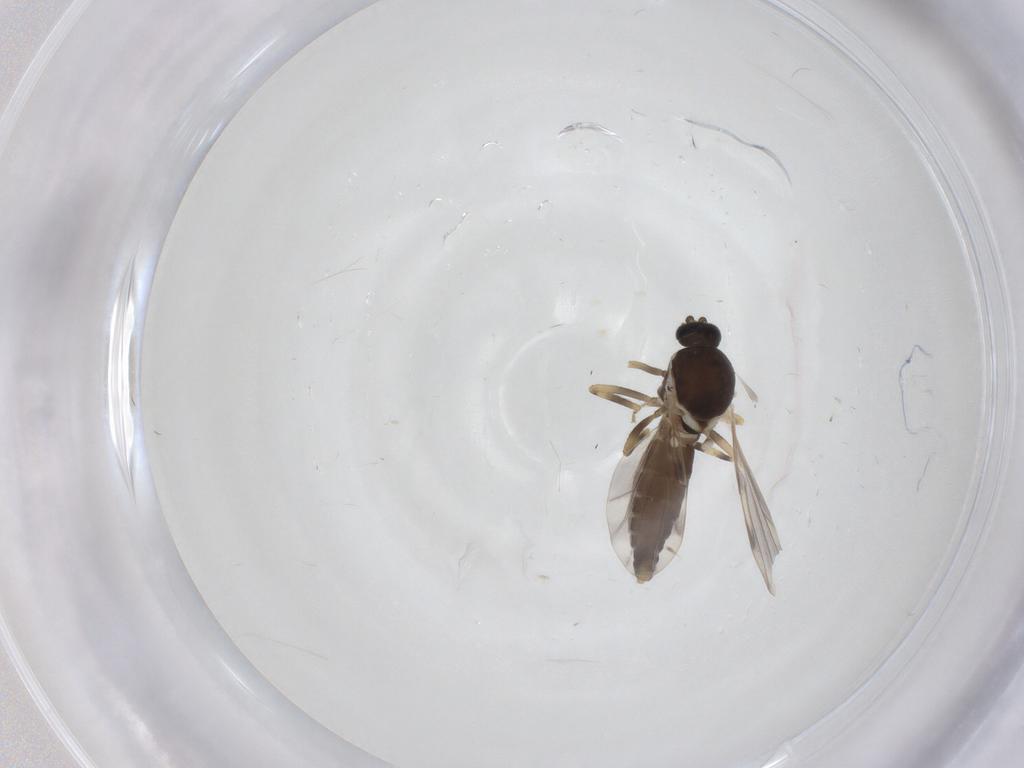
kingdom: Animalia
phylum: Arthropoda
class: Insecta
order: Diptera
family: Ceratopogonidae
